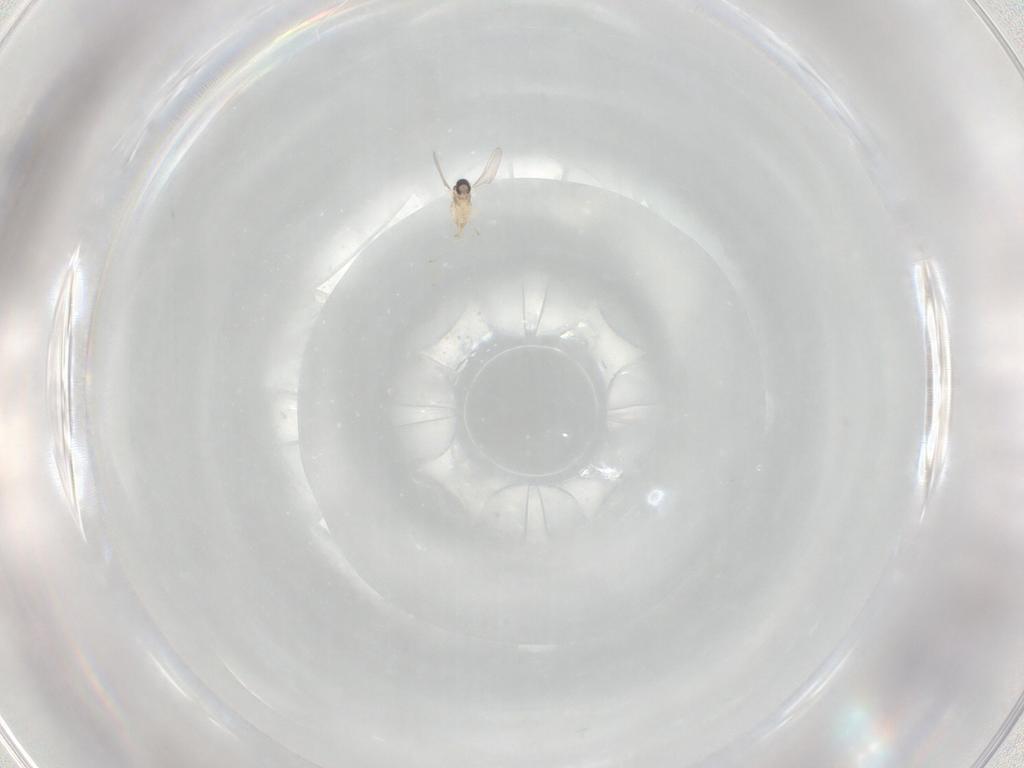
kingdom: Animalia
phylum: Arthropoda
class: Insecta
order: Diptera
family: Cecidomyiidae
